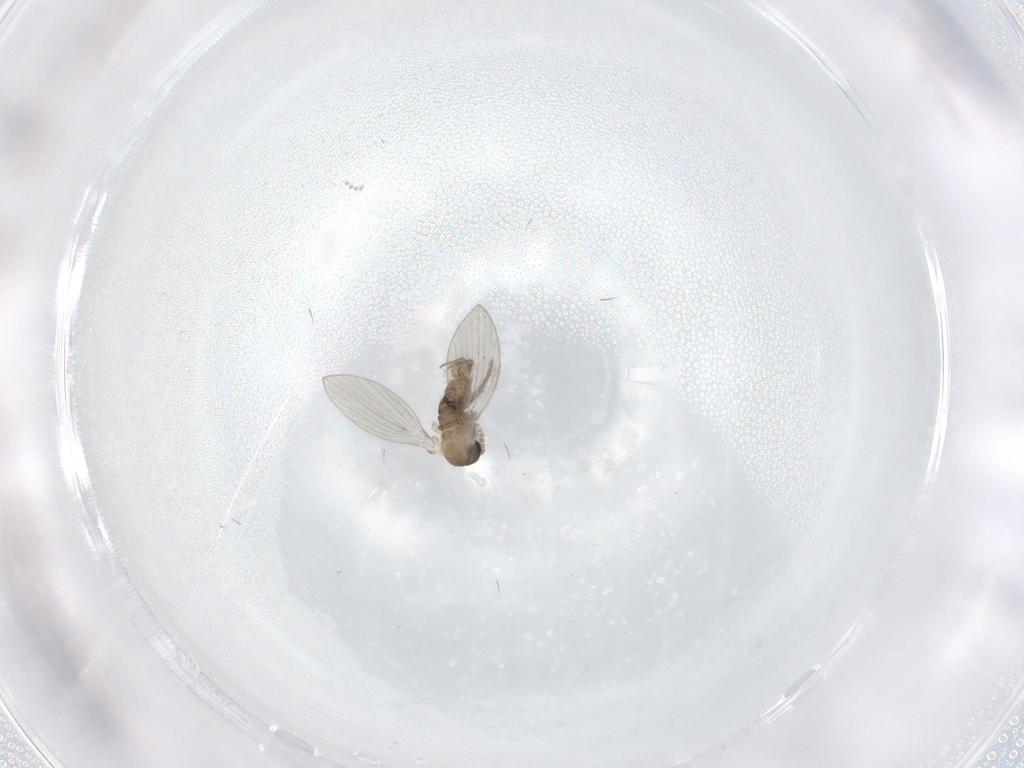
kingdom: Animalia
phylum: Arthropoda
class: Insecta
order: Diptera
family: Psychodidae
